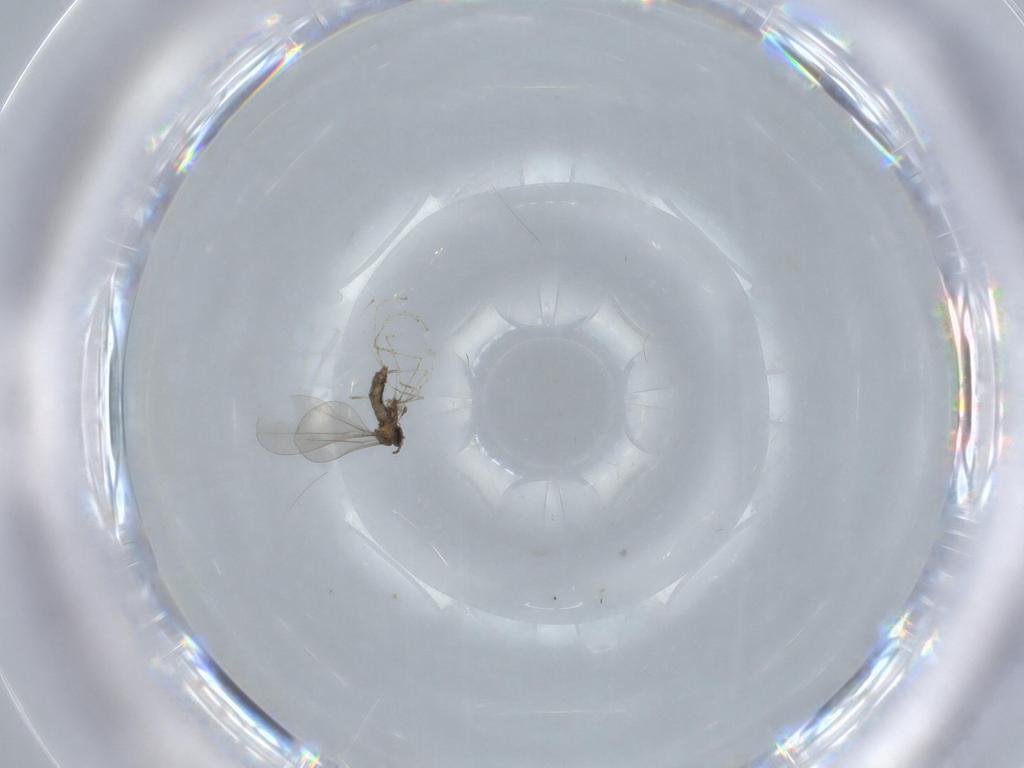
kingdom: Animalia
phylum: Arthropoda
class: Insecta
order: Diptera
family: Cecidomyiidae
